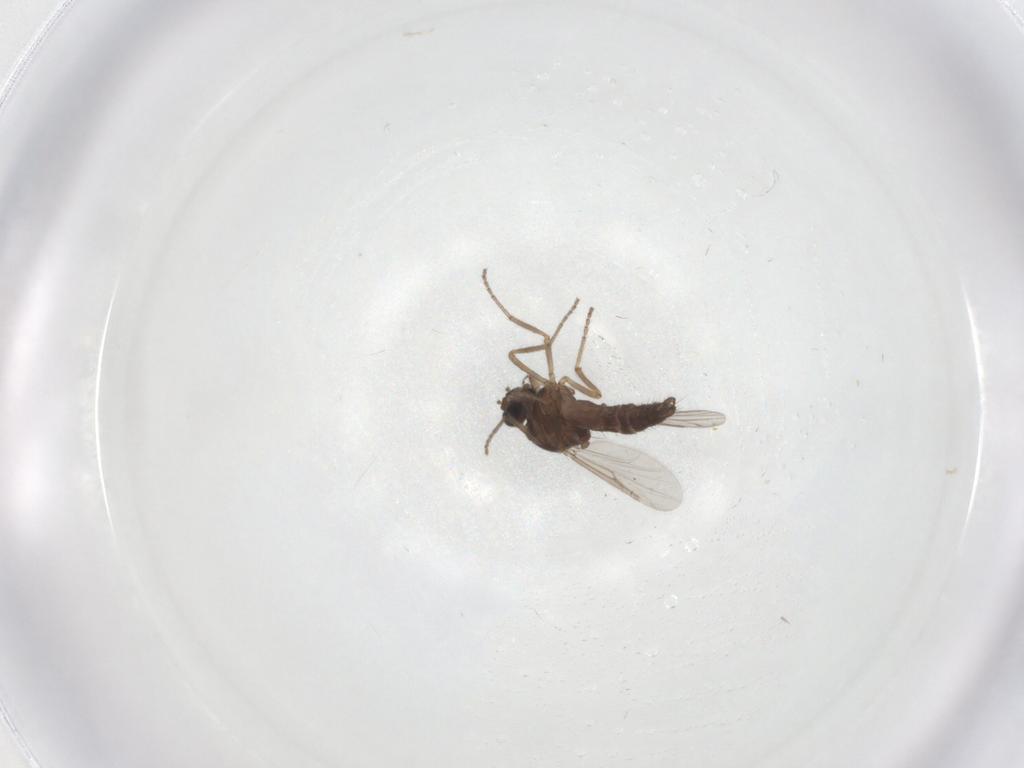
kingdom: Animalia
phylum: Arthropoda
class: Insecta
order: Diptera
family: Ceratopogonidae
